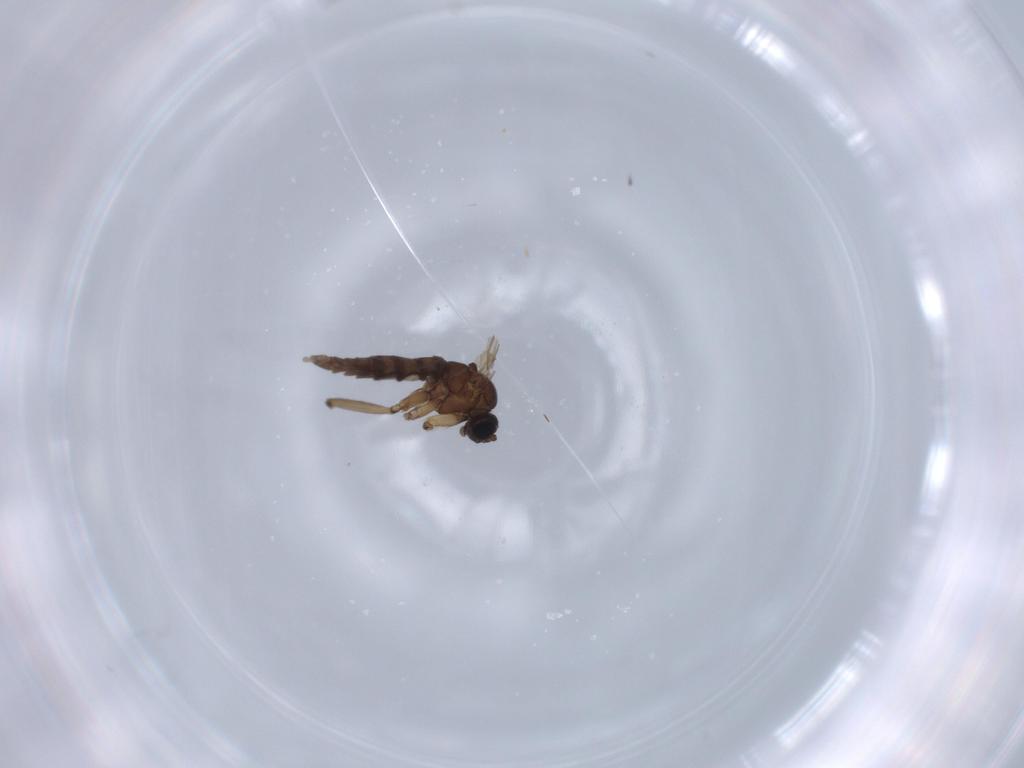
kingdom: Animalia
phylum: Arthropoda
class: Insecta
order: Diptera
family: Sciaridae
